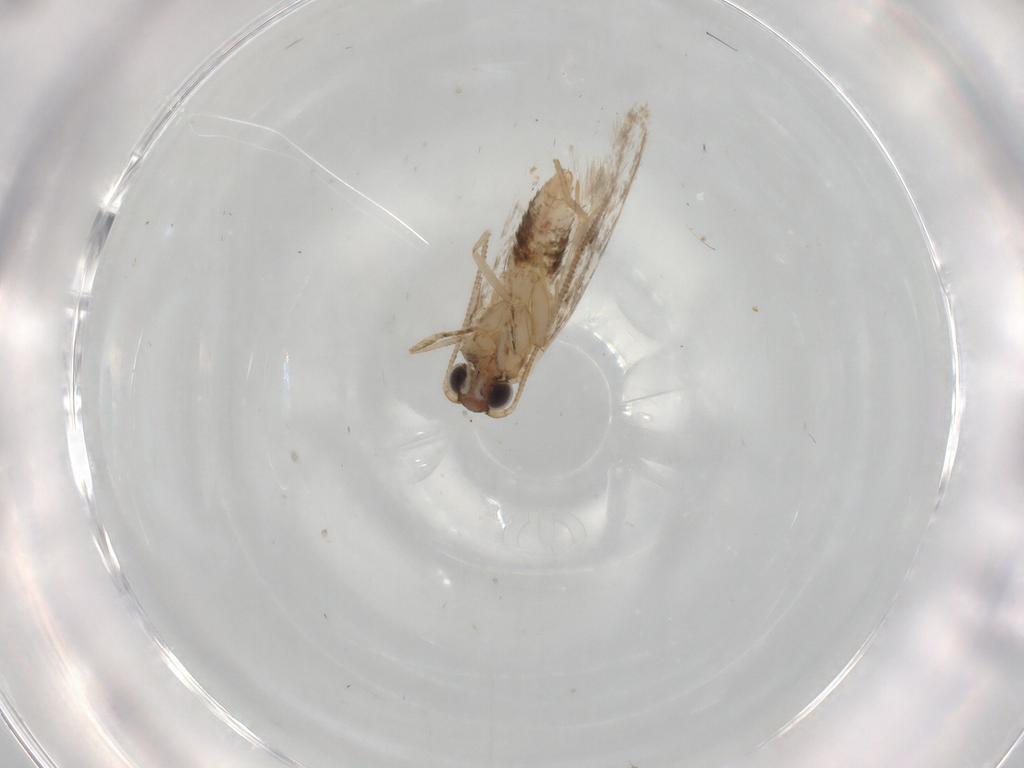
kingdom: Animalia
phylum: Arthropoda
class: Insecta
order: Lepidoptera
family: Tineidae
